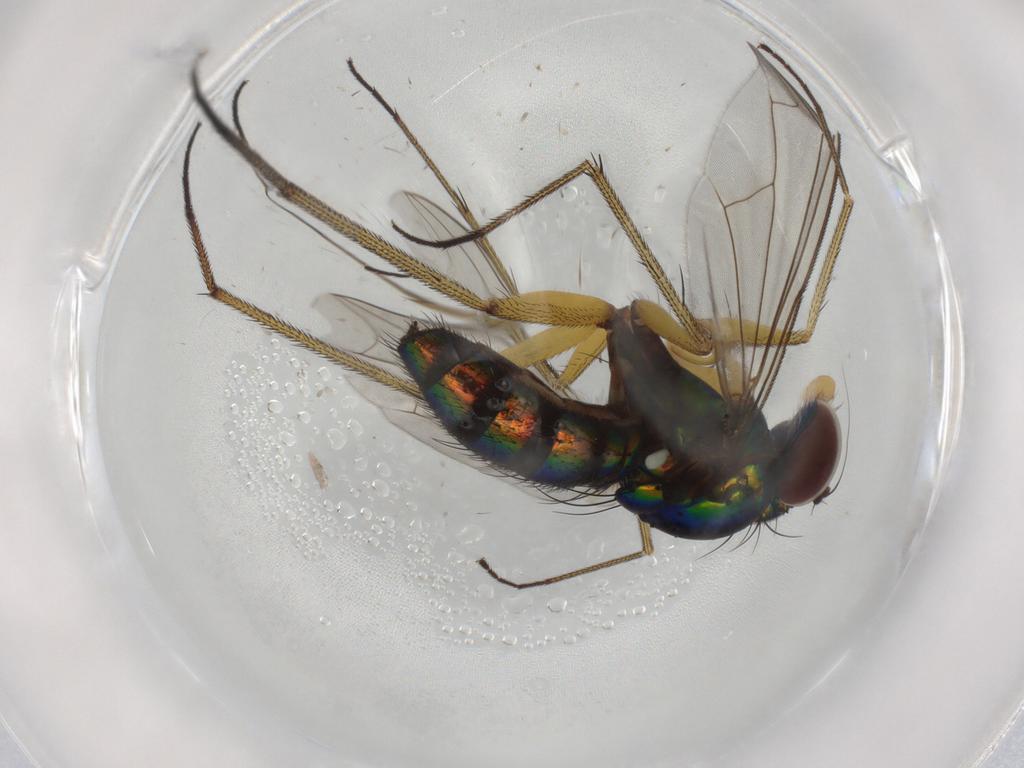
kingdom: Animalia
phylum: Arthropoda
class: Insecta
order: Diptera
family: Dolichopodidae
